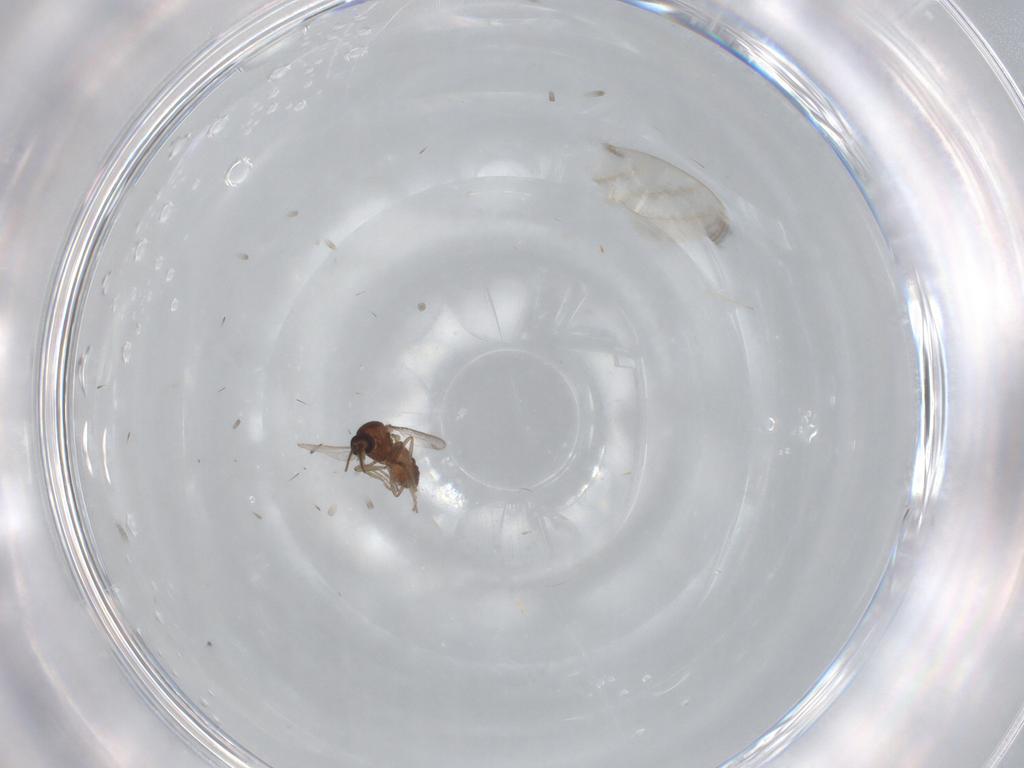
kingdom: Animalia
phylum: Arthropoda
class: Insecta
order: Diptera
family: Ceratopogonidae
